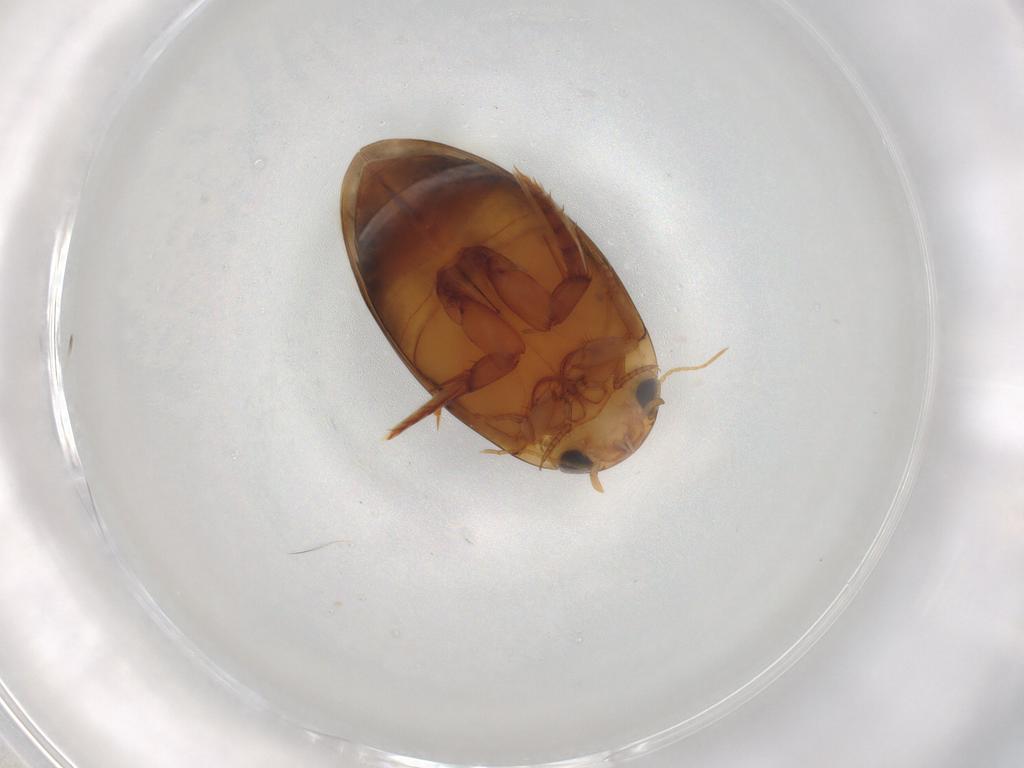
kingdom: Animalia
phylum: Arthropoda
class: Insecta
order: Coleoptera
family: Dytiscidae
